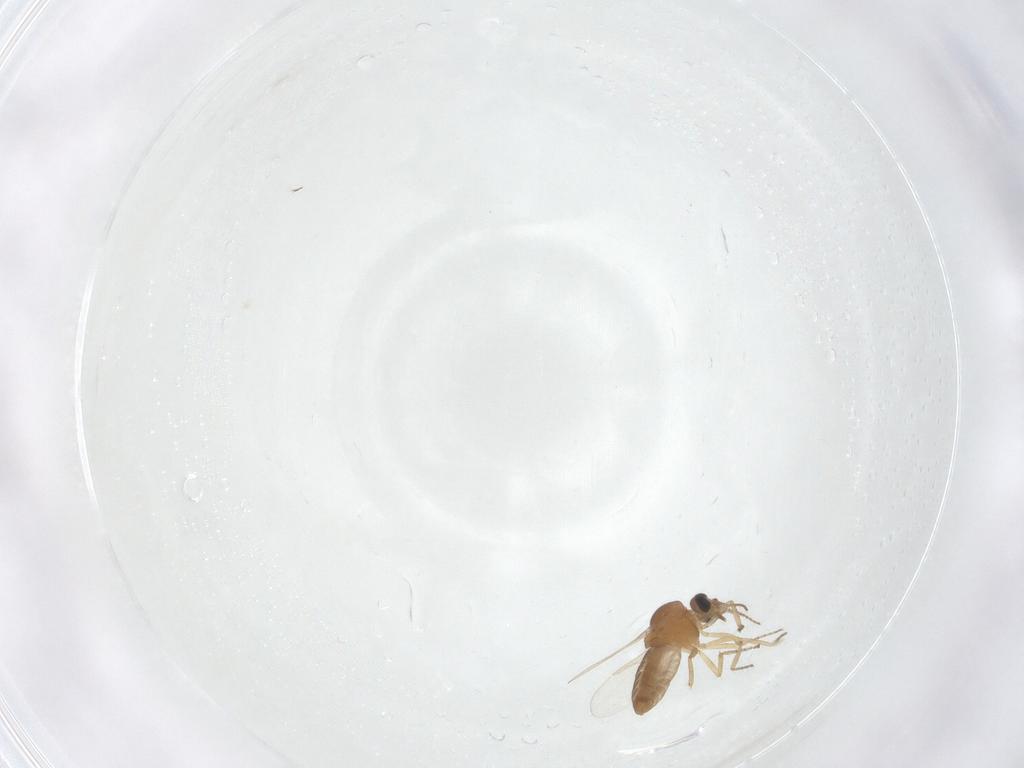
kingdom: Animalia
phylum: Arthropoda
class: Insecta
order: Diptera
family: Ceratopogonidae
